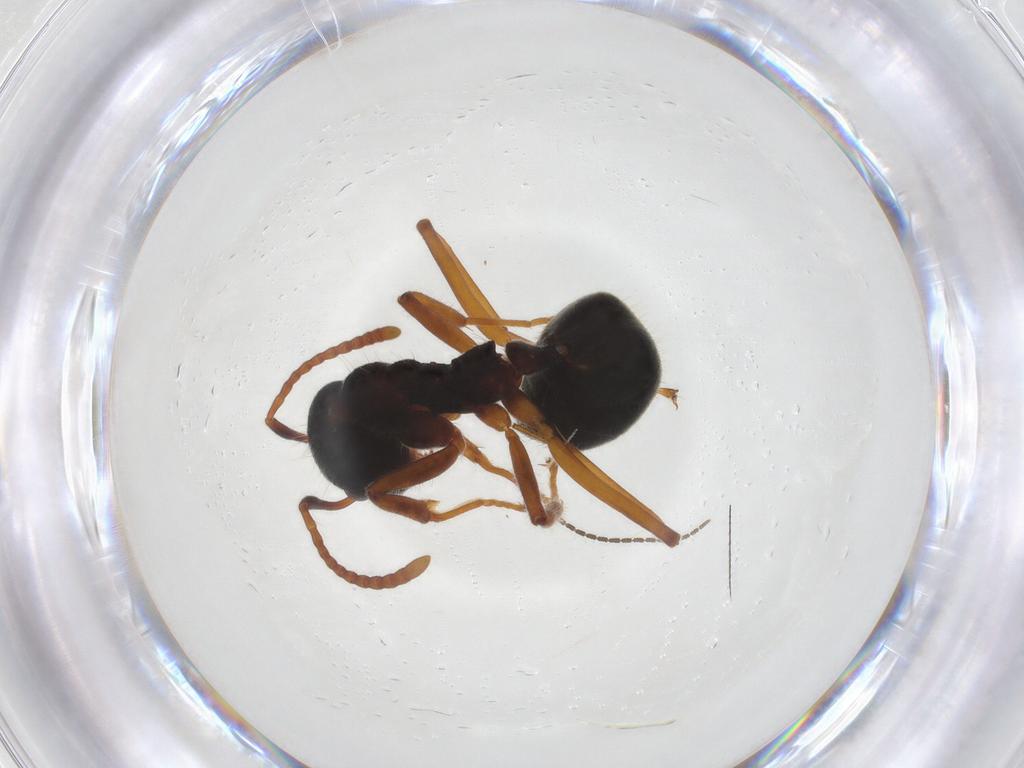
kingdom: Animalia
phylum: Arthropoda
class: Insecta
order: Hymenoptera
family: Formicidae
